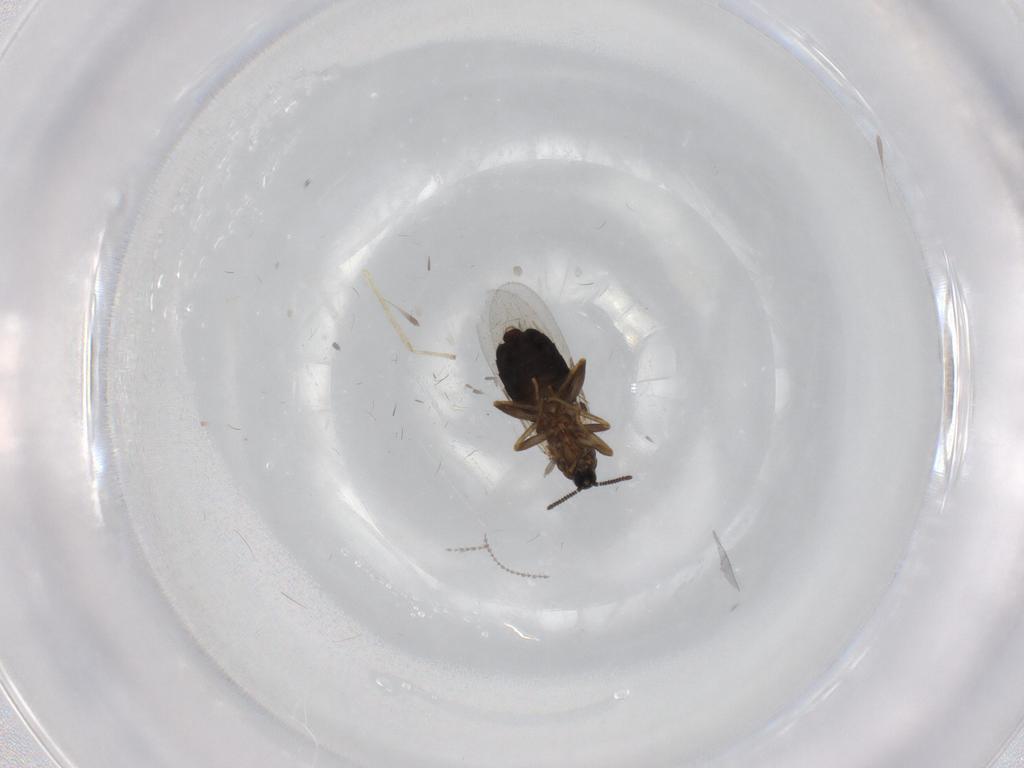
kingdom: Animalia
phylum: Arthropoda
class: Insecta
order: Diptera
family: Scatopsidae
